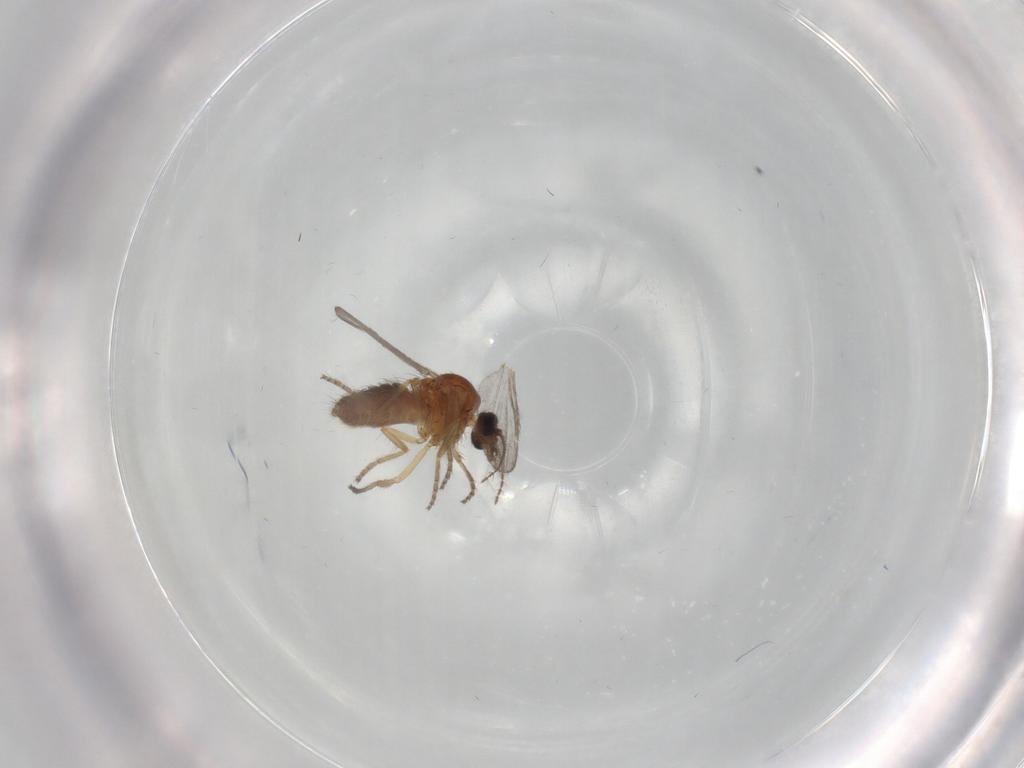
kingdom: Animalia
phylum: Arthropoda
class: Insecta
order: Diptera
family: Ceratopogonidae
